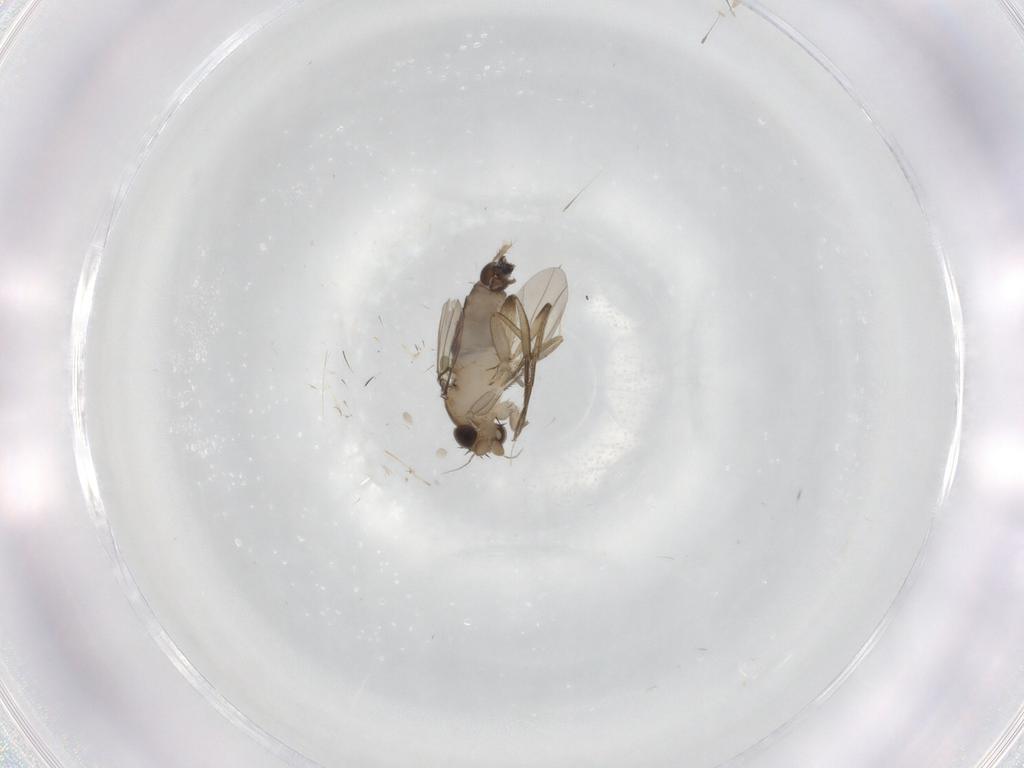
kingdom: Animalia
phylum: Arthropoda
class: Insecta
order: Diptera
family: Phoridae
